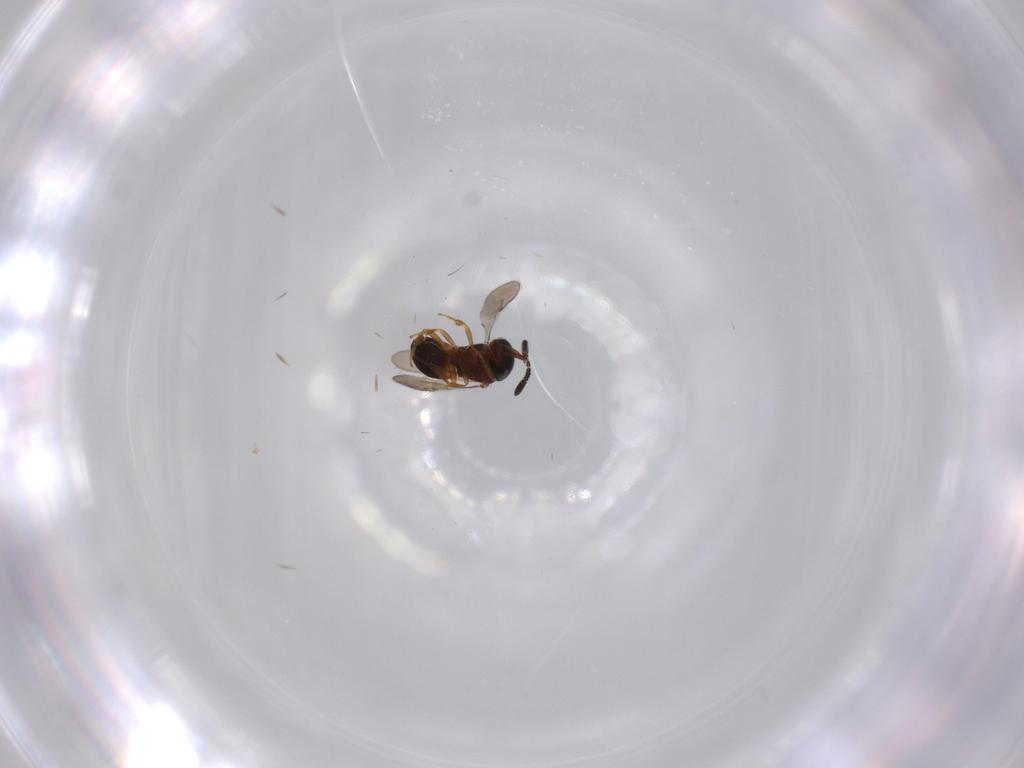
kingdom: Animalia
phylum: Arthropoda
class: Insecta
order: Hymenoptera
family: Scelionidae
